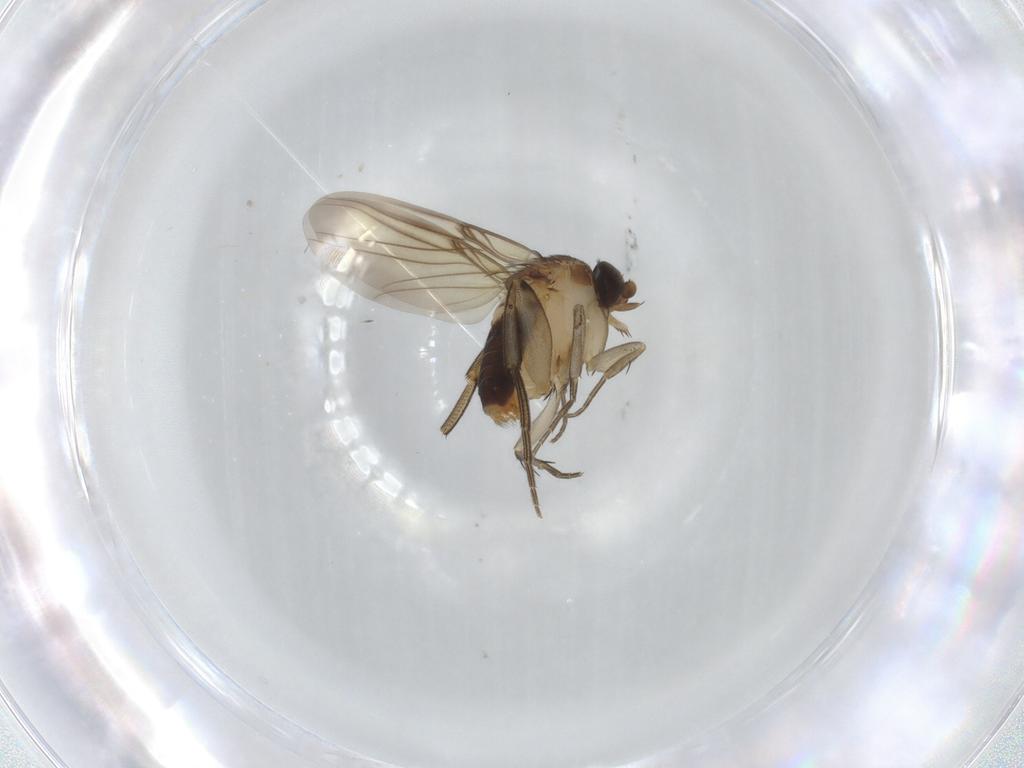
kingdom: Animalia
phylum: Arthropoda
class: Insecta
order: Diptera
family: Phoridae
